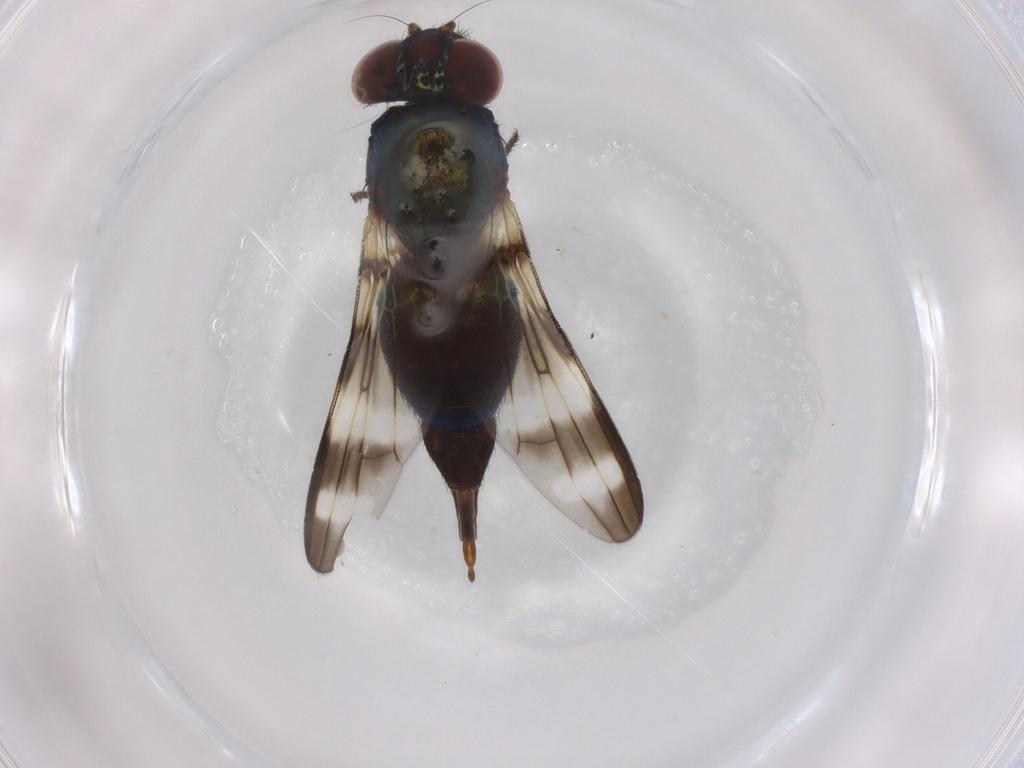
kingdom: Animalia
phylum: Arthropoda
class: Insecta
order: Diptera
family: Ulidiidae
